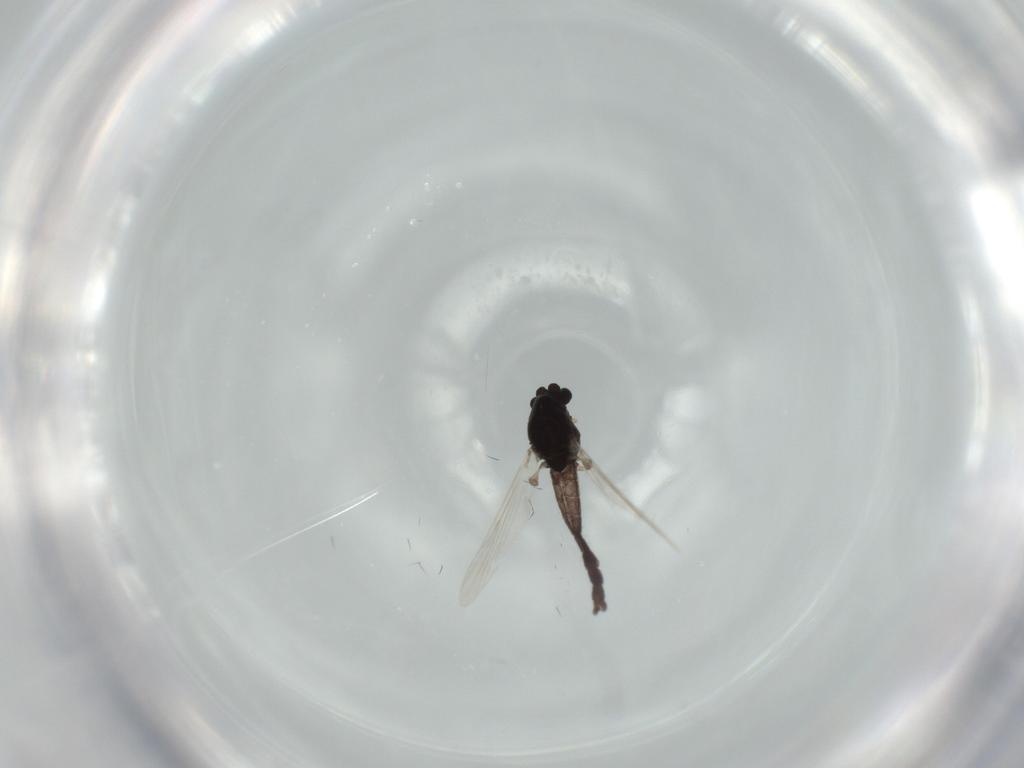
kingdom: Animalia
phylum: Arthropoda
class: Insecta
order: Diptera
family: Chironomidae
